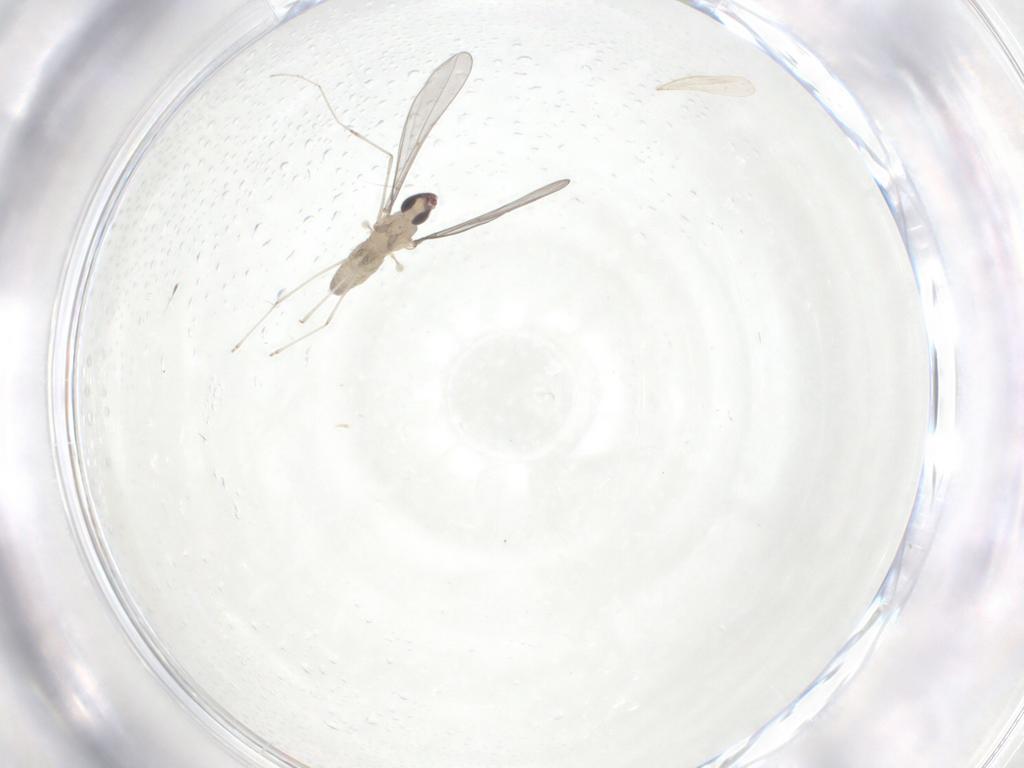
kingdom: Animalia
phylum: Arthropoda
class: Insecta
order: Diptera
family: Cecidomyiidae
